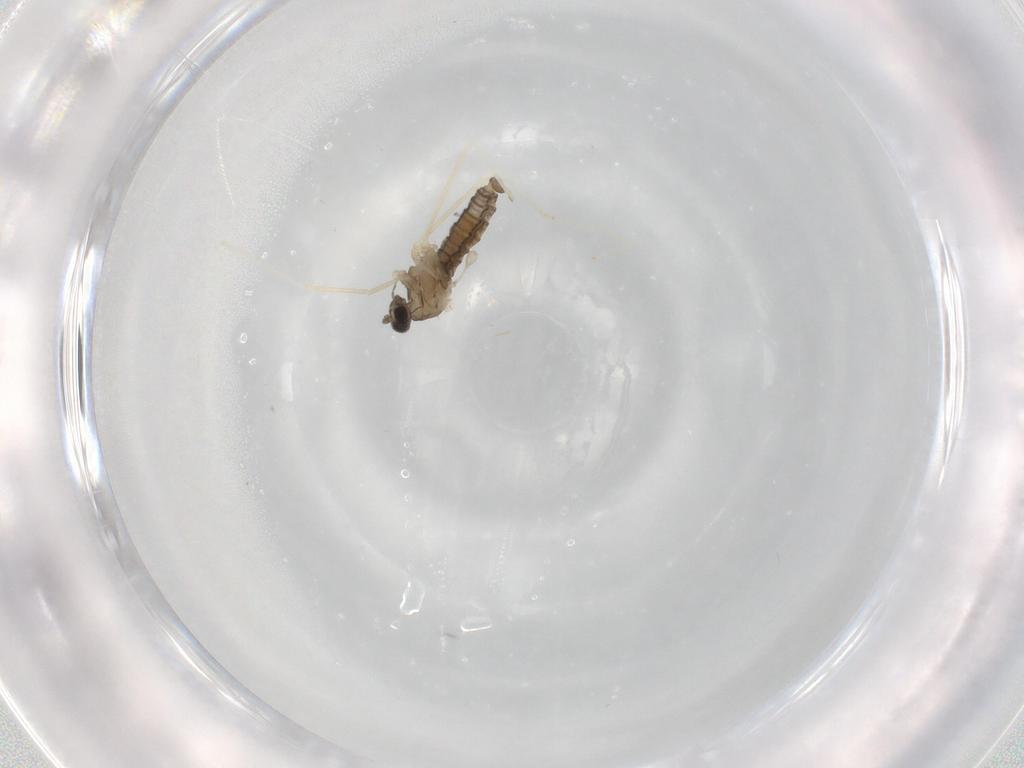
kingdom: Animalia
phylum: Arthropoda
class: Insecta
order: Diptera
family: Cecidomyiidae
